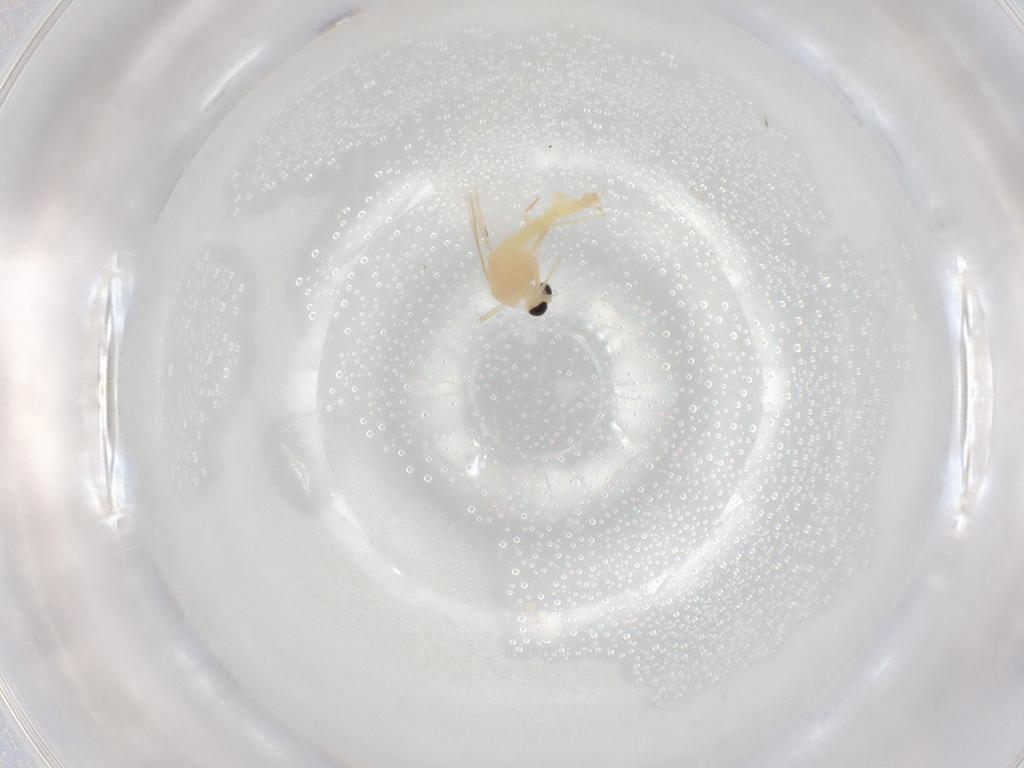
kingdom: Animalia
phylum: Arthropoda
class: Insecta
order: Diptera
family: Chironomidae
